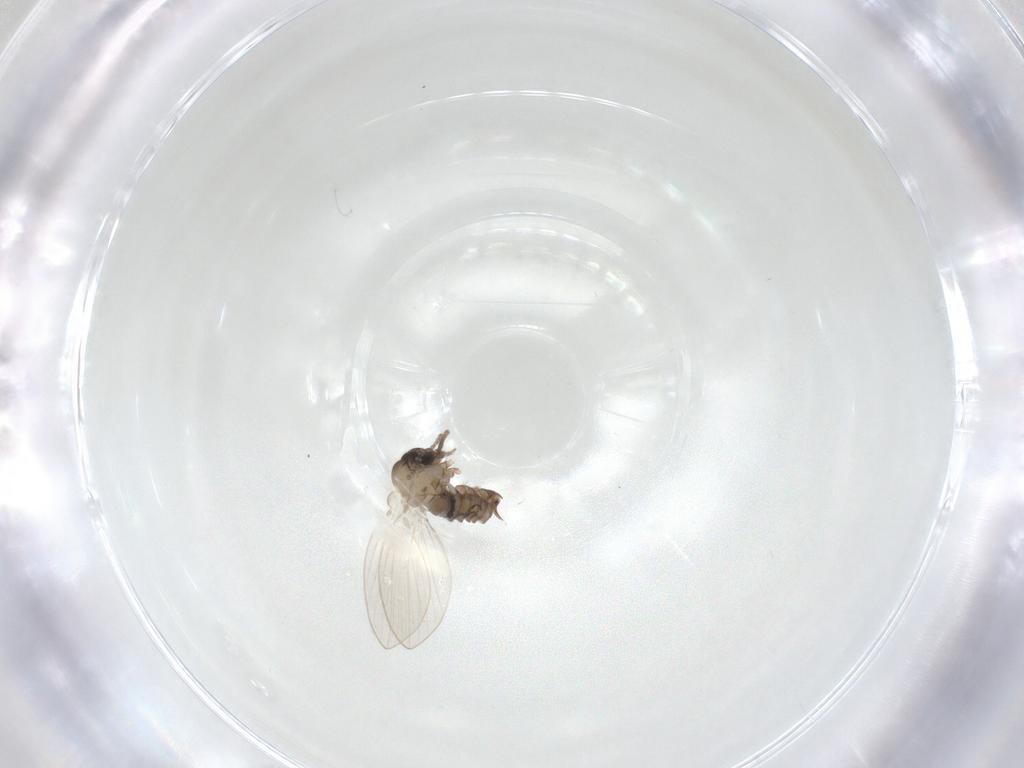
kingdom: Animalia
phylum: Arthropoda
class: Insecta
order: Diptera
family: Psychodidae
